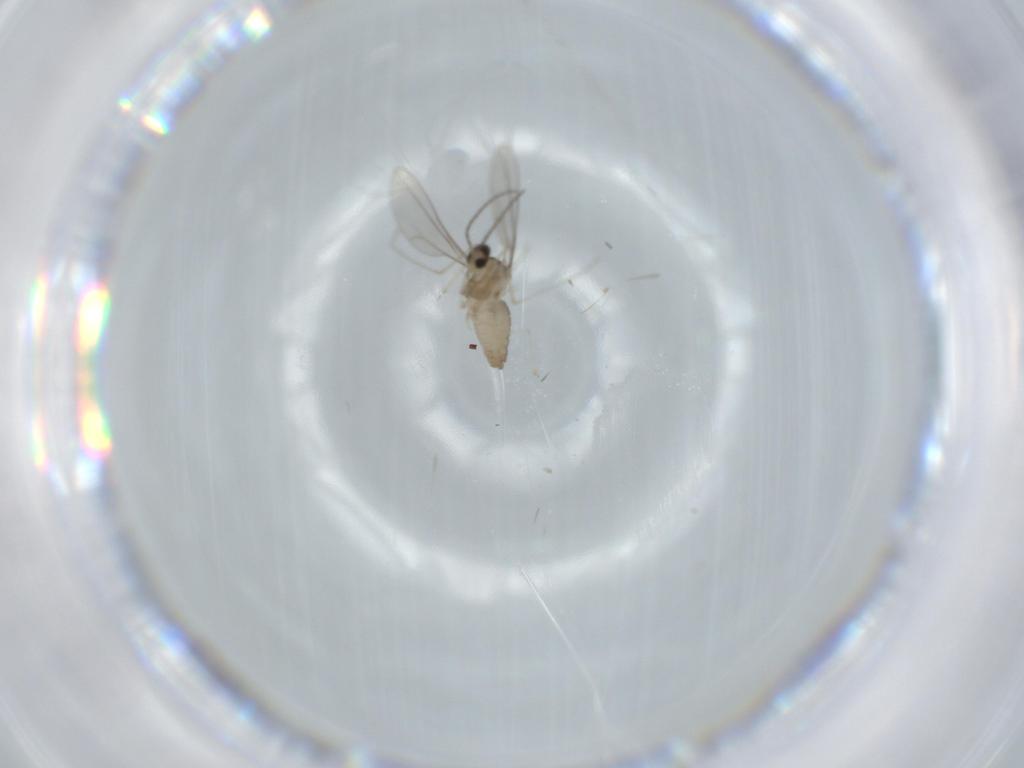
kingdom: Animalia
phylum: Arthropoda
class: Insecta
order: Diptera
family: Cecidomyiidae
